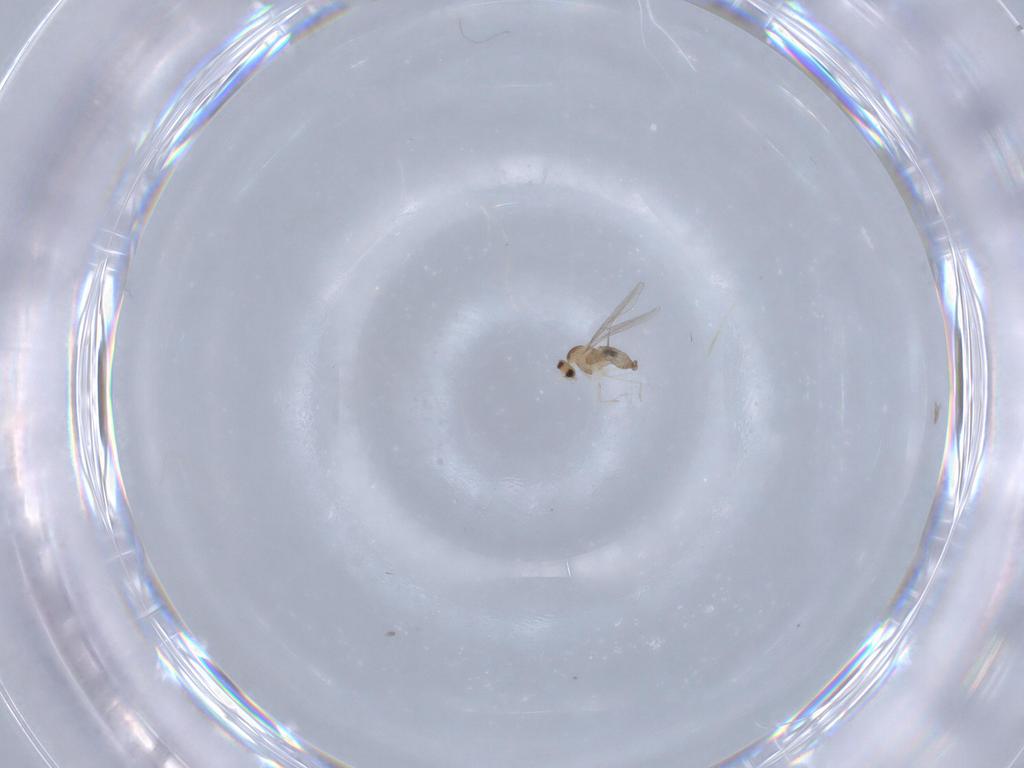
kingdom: Animalia
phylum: Arthropoda
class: Insecta
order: Diptera
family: Cecidomyiidae
